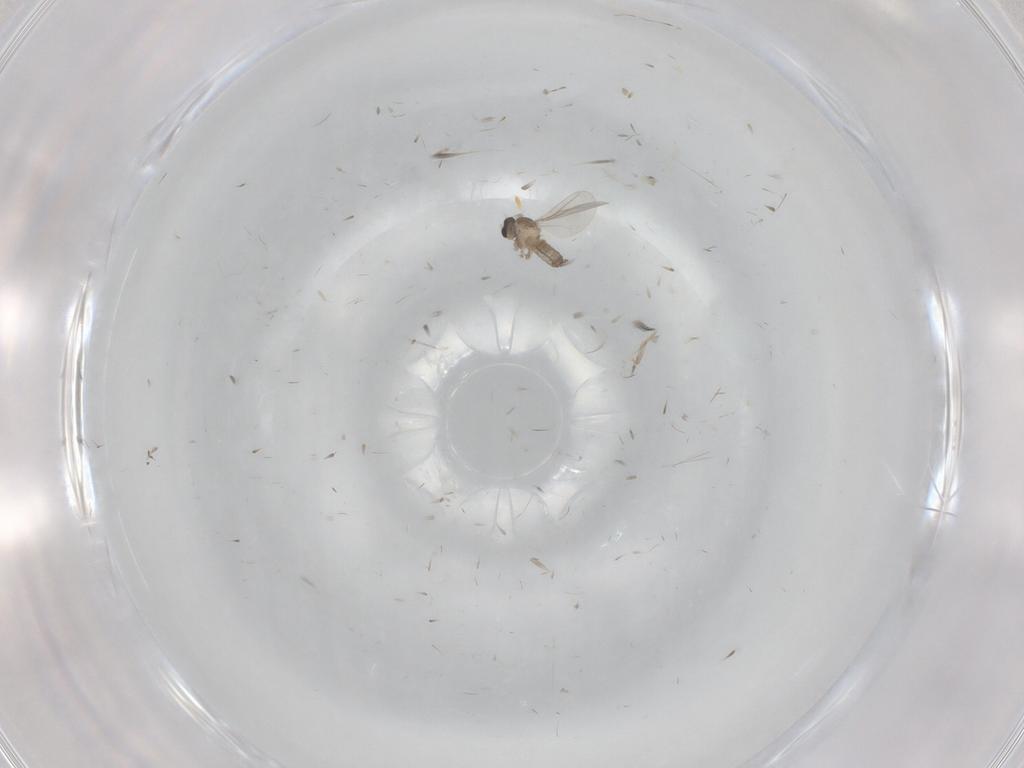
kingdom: Animalia
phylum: Arthropoda
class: Insecta
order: Diptera
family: Cecidomyiidae
